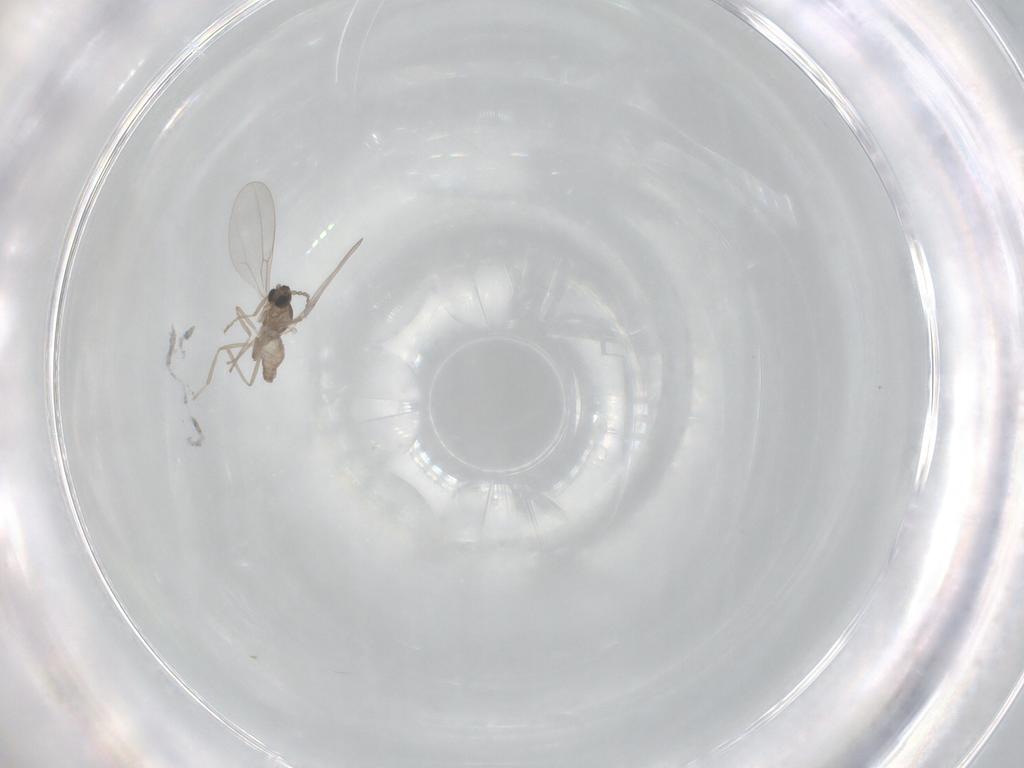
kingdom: Animalia
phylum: Arthropoda
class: Insecta
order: Diptera
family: Cecidomyiidae
